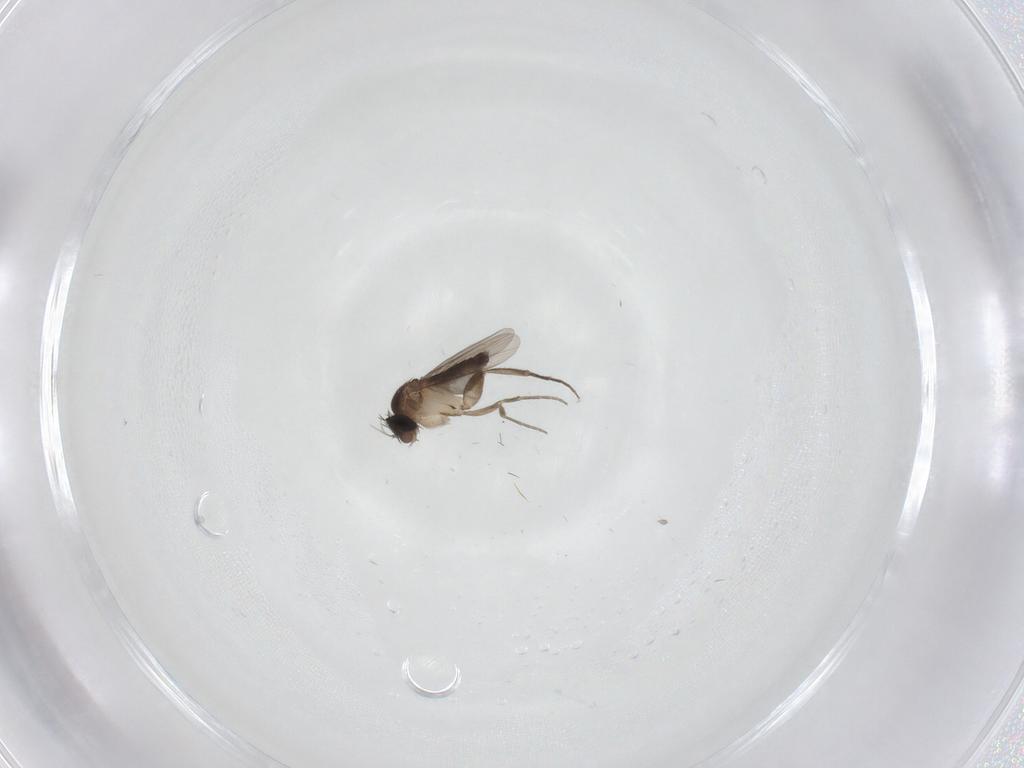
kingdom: Animalia
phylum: Arthropoda
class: Insecta
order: Diptera
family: Phoridae
